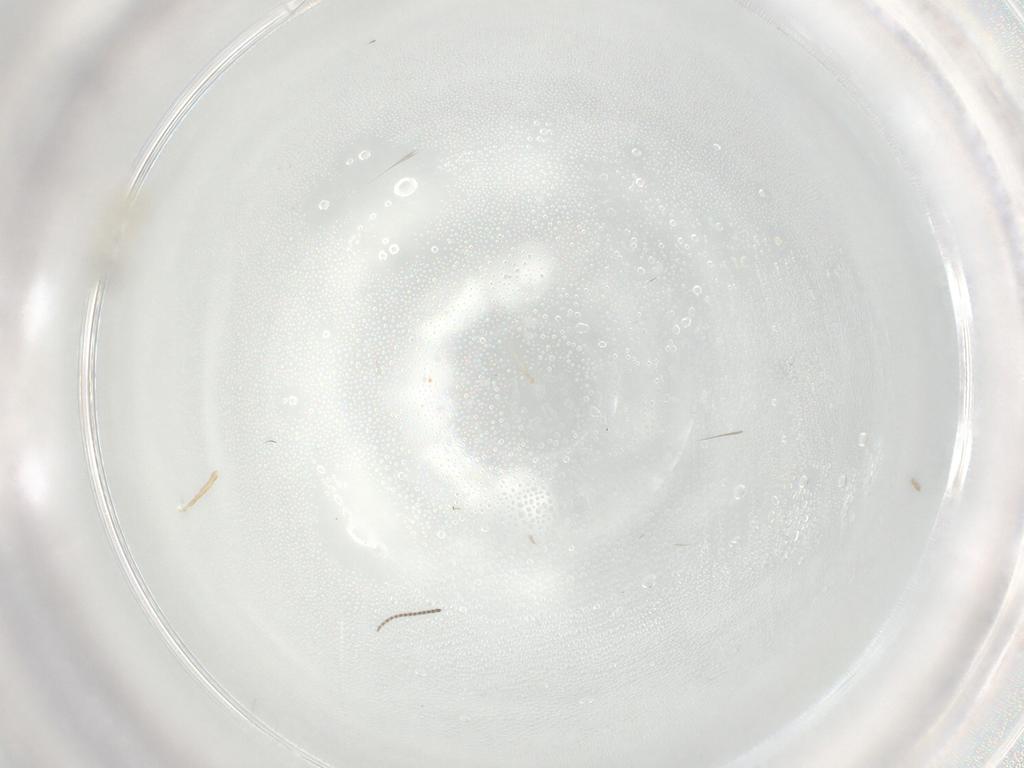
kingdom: Animalia
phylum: Arthropoda
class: Insecta
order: Diptera
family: Sciaridae
